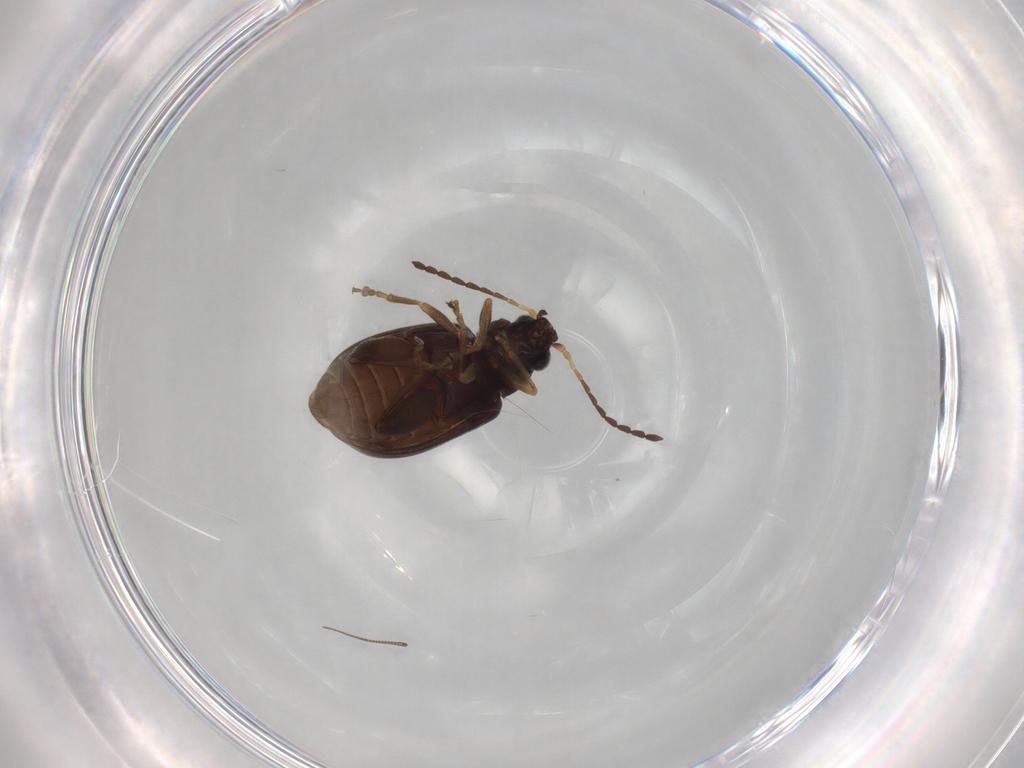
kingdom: Animalia
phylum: Arthropoda
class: Insecta
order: Coleoptera
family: Chrysomelidae
